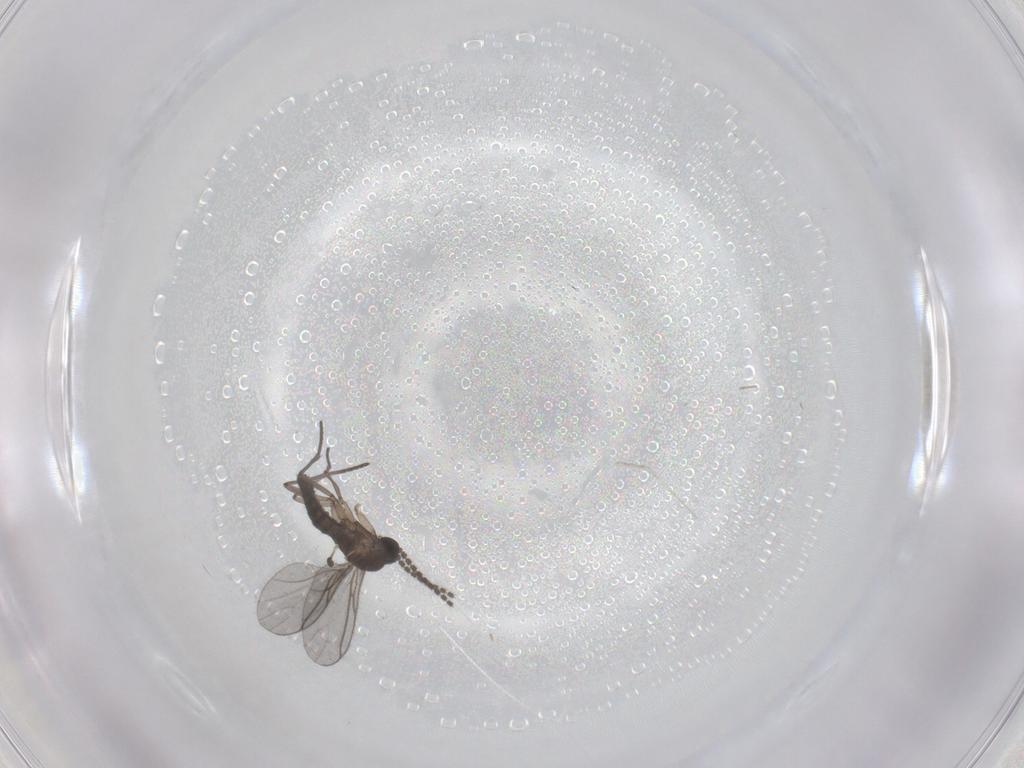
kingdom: Animalia
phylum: Arthropoda
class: Insecta
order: Diptera
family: Cecidomyiidae
